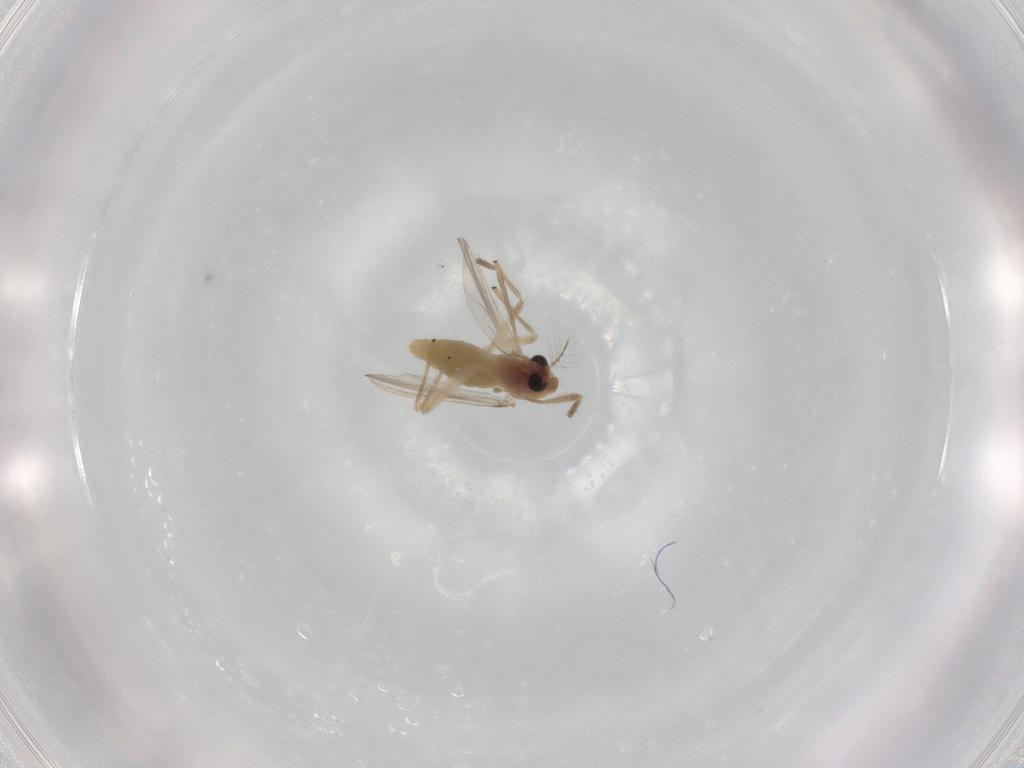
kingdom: Animalia
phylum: Arthropoda
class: Insecta
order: Diptera
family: Chironomidae
